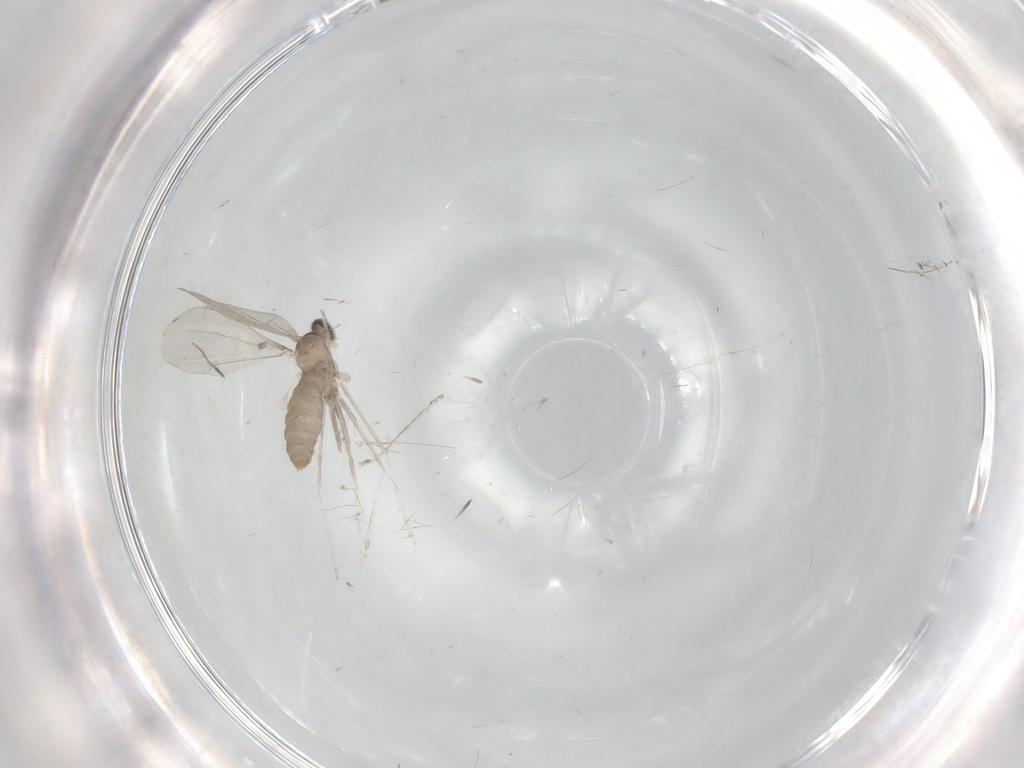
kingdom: Animalia
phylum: Arthropoda
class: Insecta
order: Diptera
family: Cecidomyiidae
